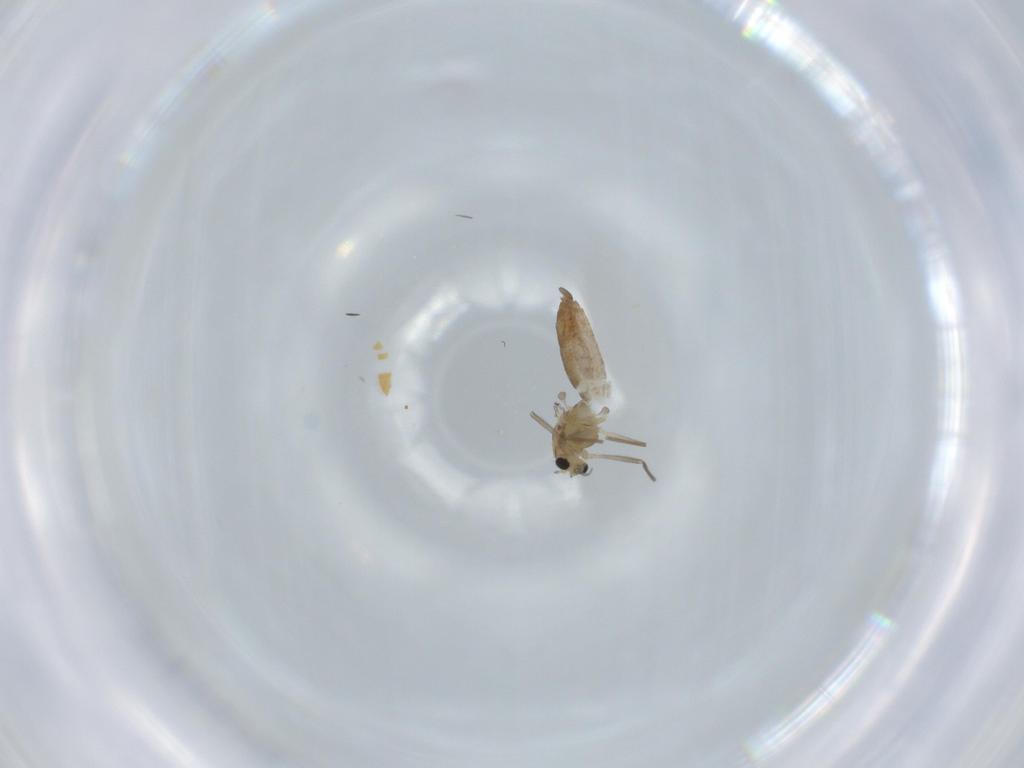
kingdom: Animalia
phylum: Arthropoda
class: Insecta
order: Diptera
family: Chironomidae
